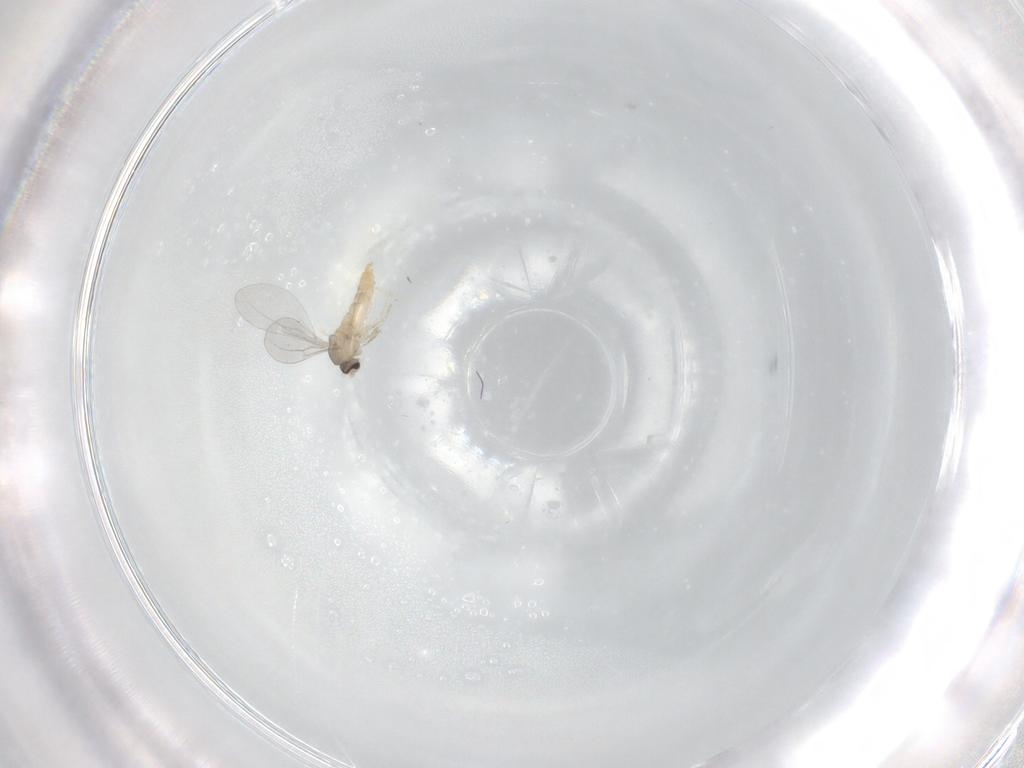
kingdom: Animalia
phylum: Arthropoda
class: Insecta
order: Diptera
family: Cecidomyiidae
